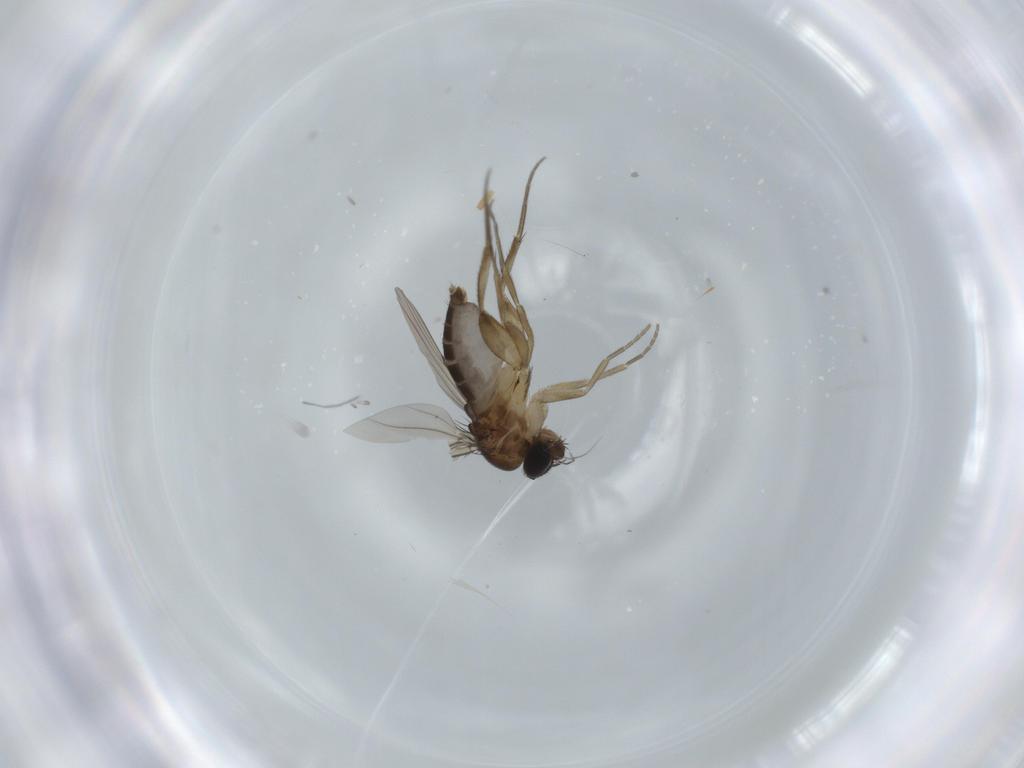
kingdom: Animalia
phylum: Arthropoda
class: Insecta
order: Diptera
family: Phoridae
